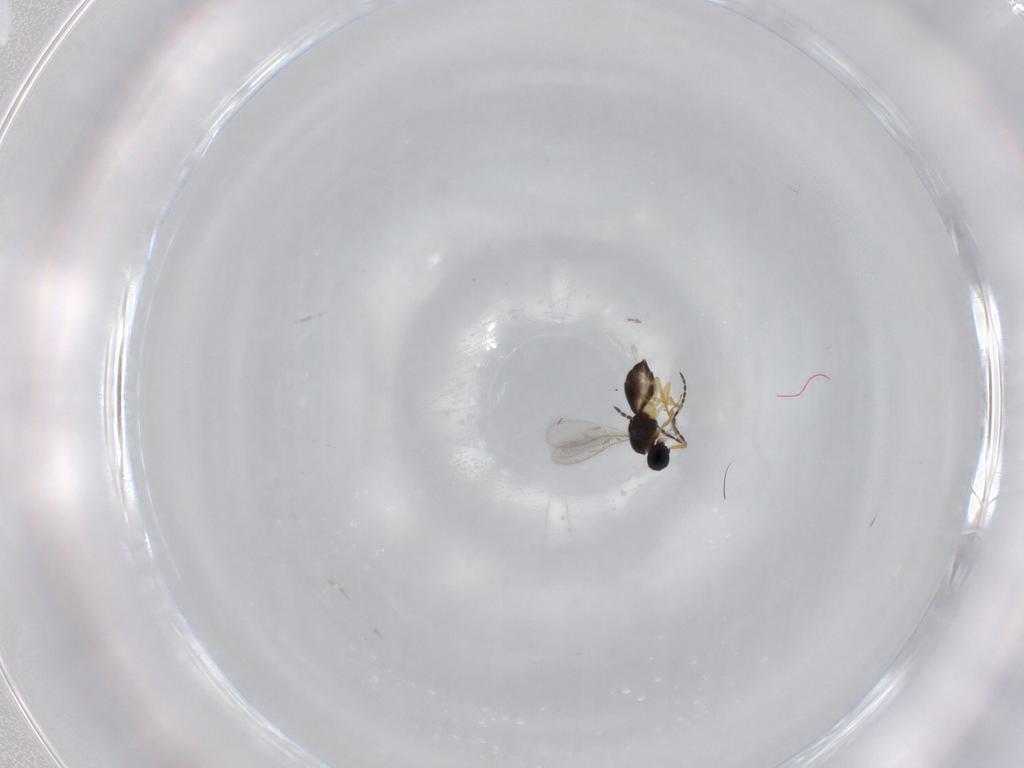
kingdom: Animalia
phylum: Arthropoda
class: Insecta
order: Hymenoptera
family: Scelionidae
